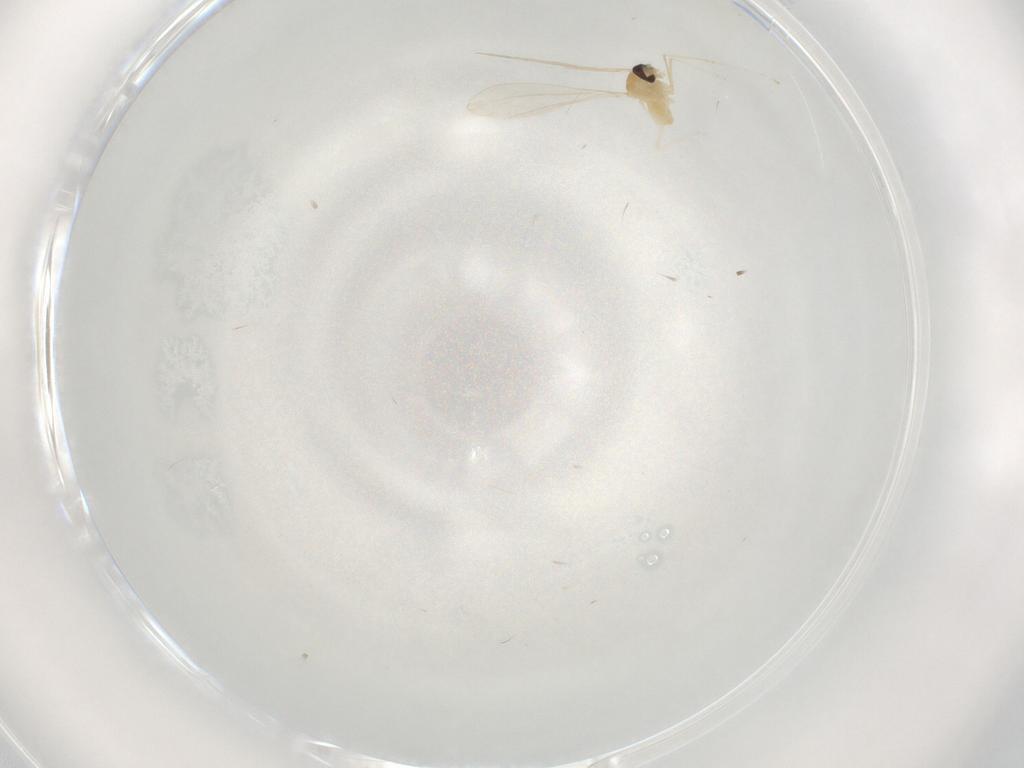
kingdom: Animalia
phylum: Arthropoda
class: Insecta
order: Diptera
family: Cecidomyiidae
